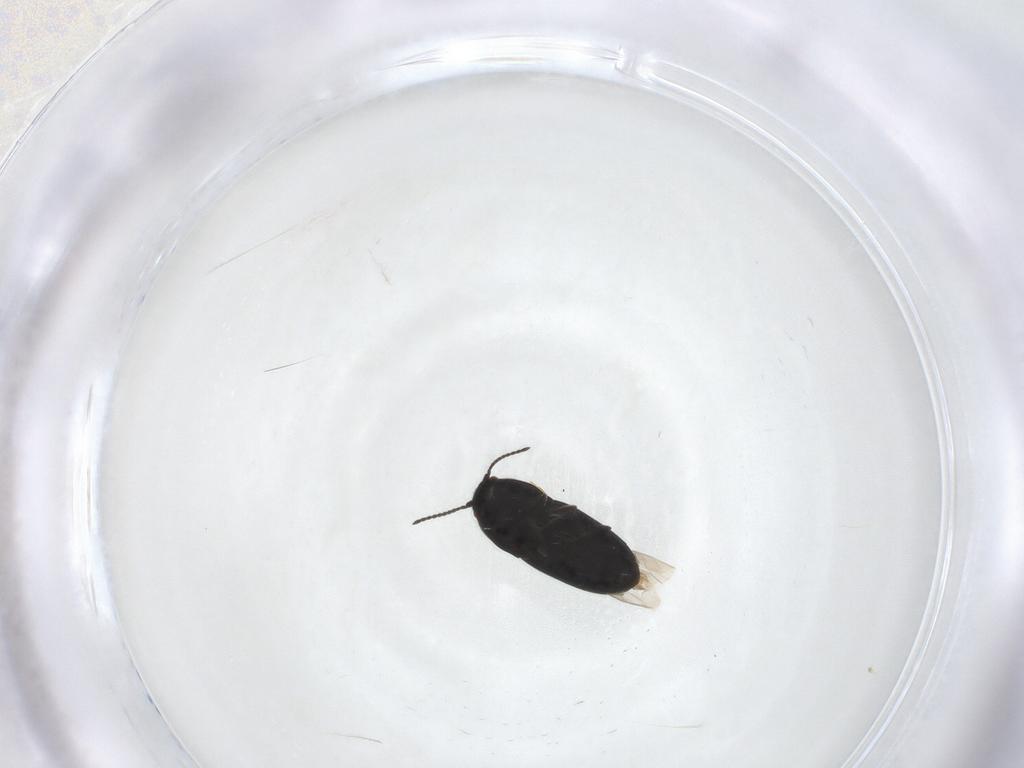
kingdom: Animalia
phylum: Arthropoda
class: Insecta
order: Coleoptera
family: Elateridae
